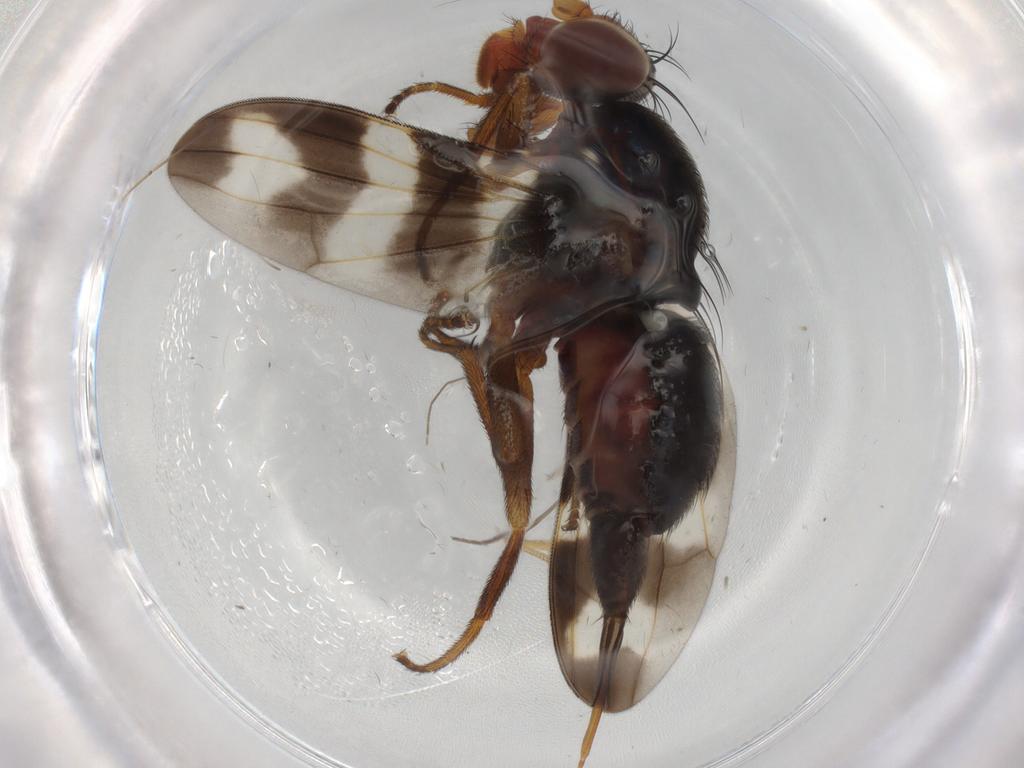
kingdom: Animalia
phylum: Arthropoda
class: Insecta
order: Diptera
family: Ulidiidae
